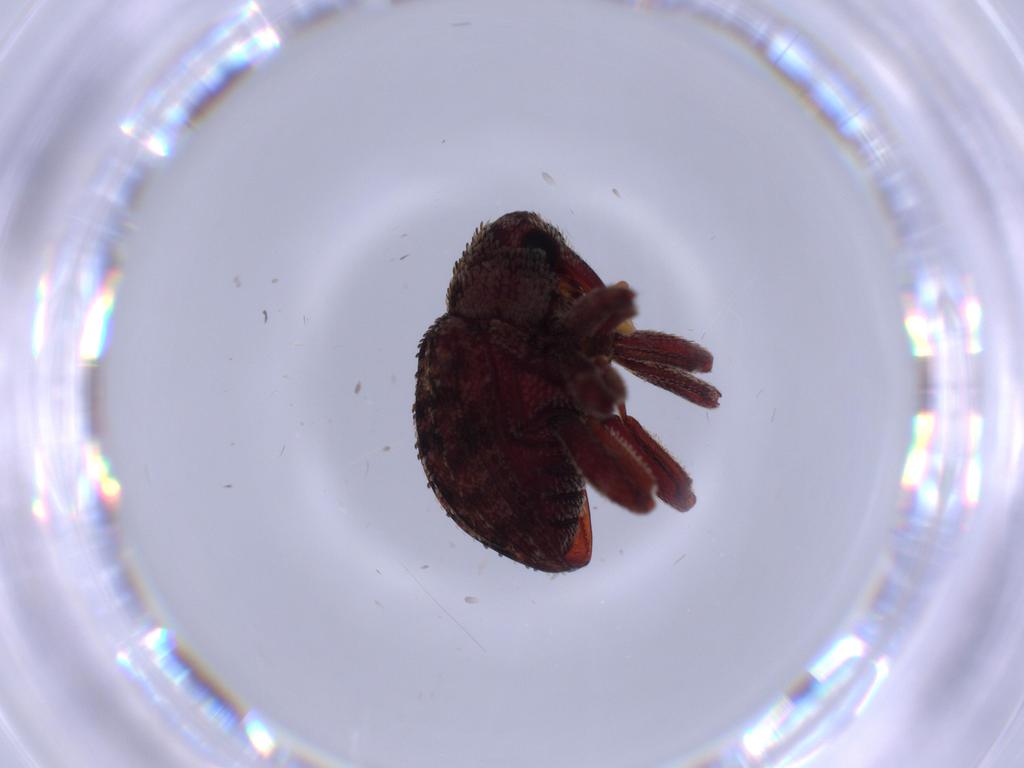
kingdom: Animalia
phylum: Arthropoda
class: Insecta
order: Coleoptera
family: Curculionidae
